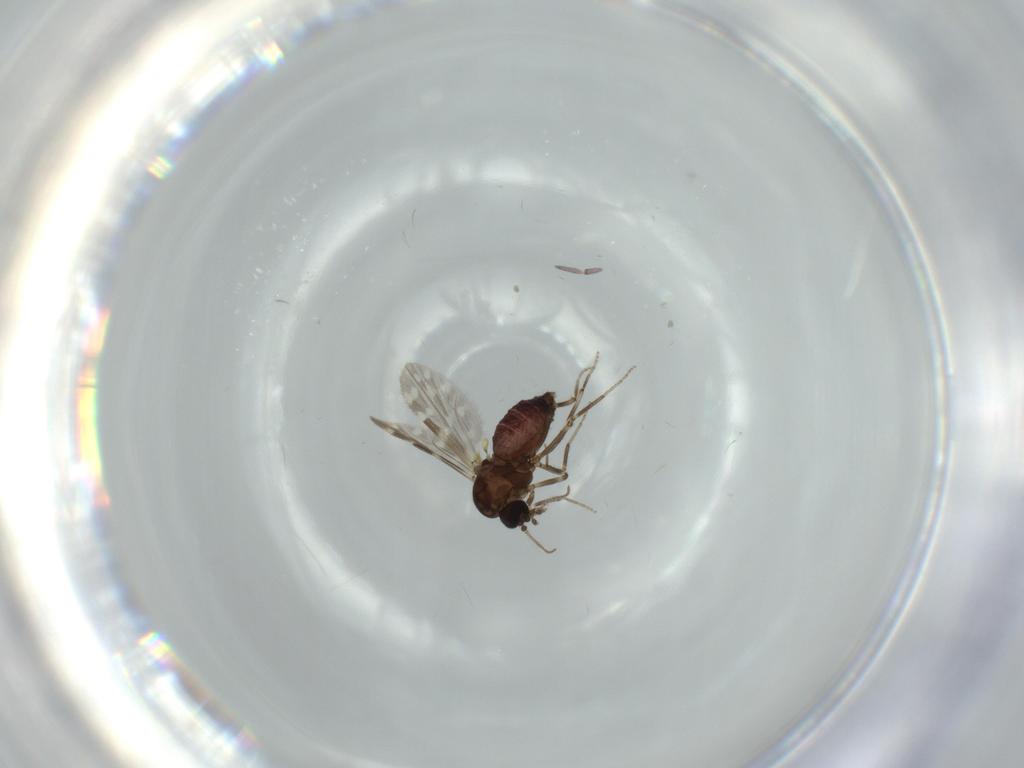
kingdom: Animalia
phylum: Arthropoda
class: Insecta
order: Diptera
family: Ceratopogonidae
